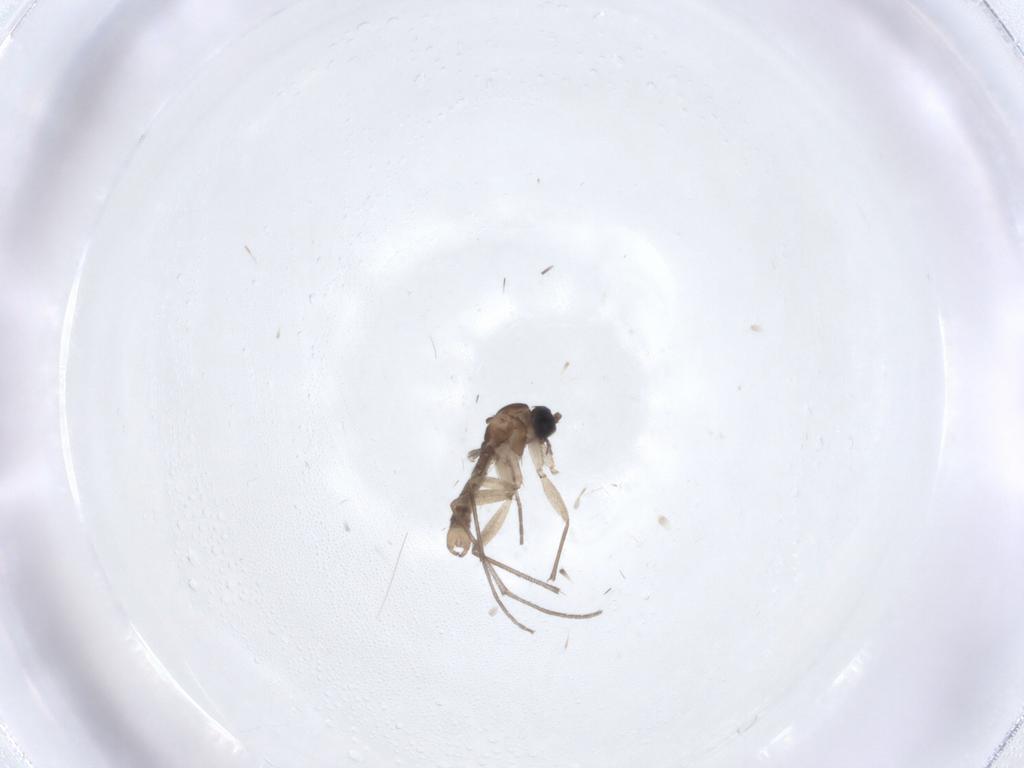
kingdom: Animalia
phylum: Arthropoda
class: Insecta
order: Diptera
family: Sciaridae
